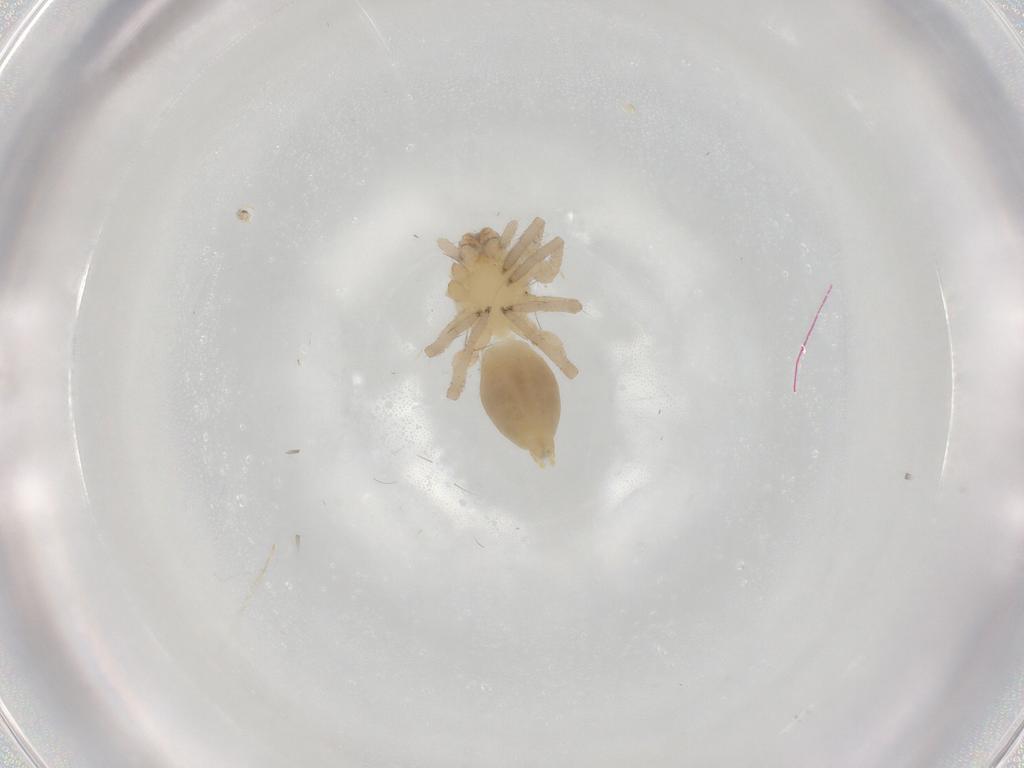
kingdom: Animalia
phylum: Arthropoda
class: Arachnida
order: Araneae
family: Clubionidae
